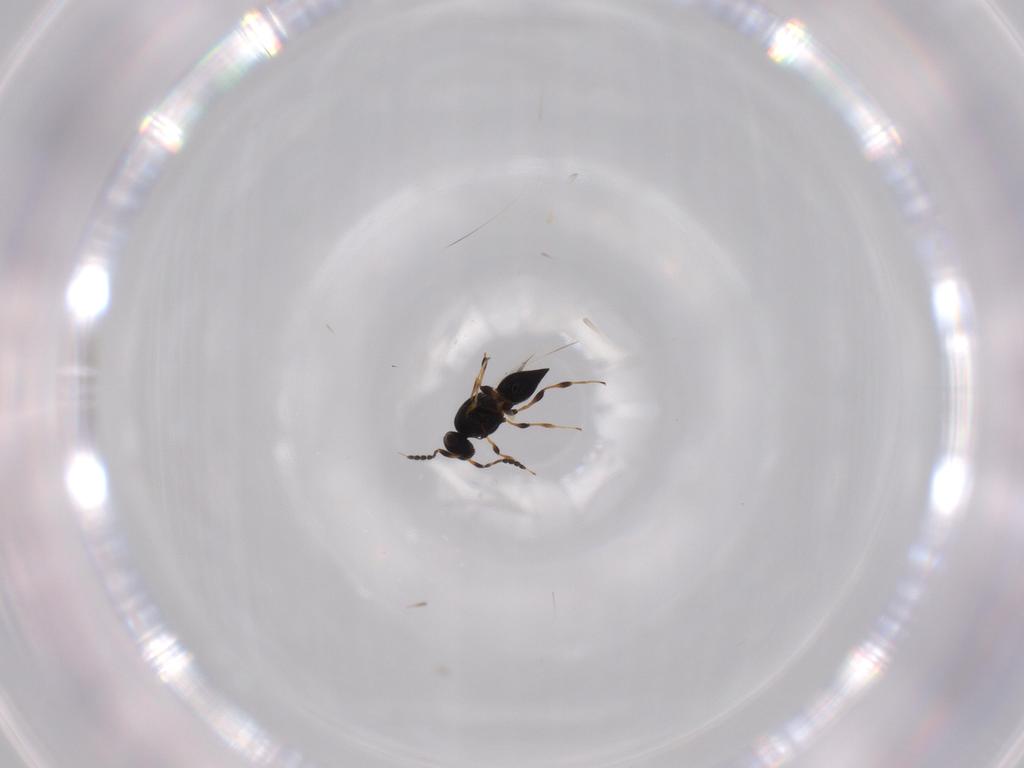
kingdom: Animalia
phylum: Arthropoda
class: Insecta
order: Hymenoptera
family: Platygastridae
